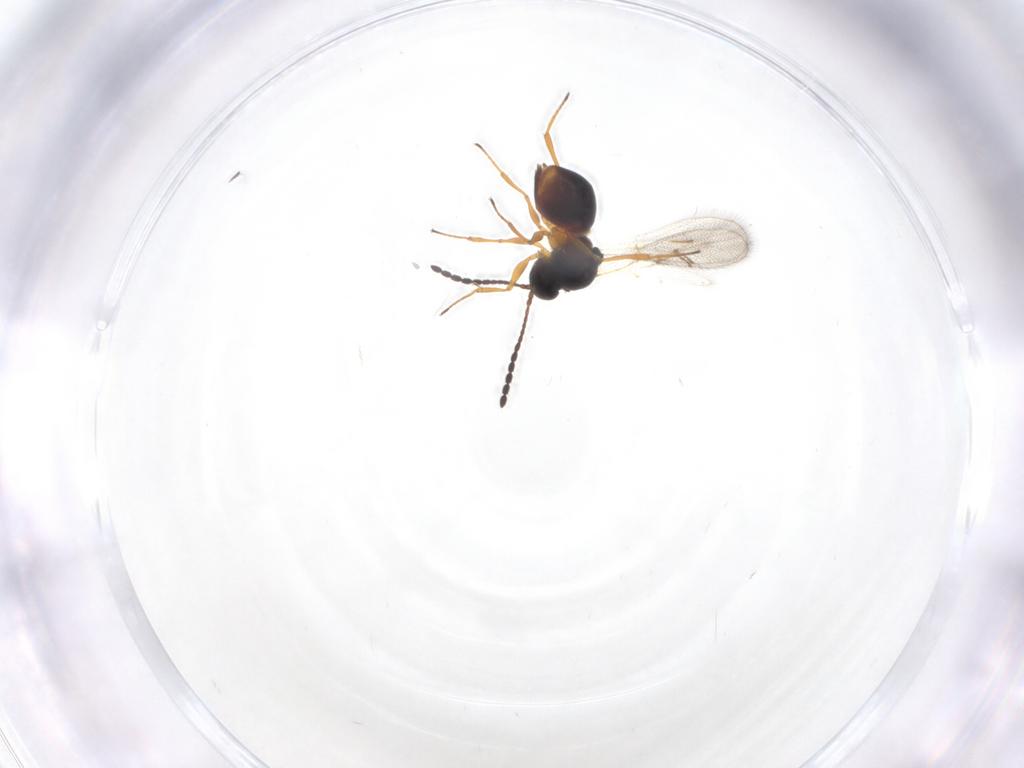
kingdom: Animalia
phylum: Arthropoda
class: Insecta
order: Hymenoptera
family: Figitidae
